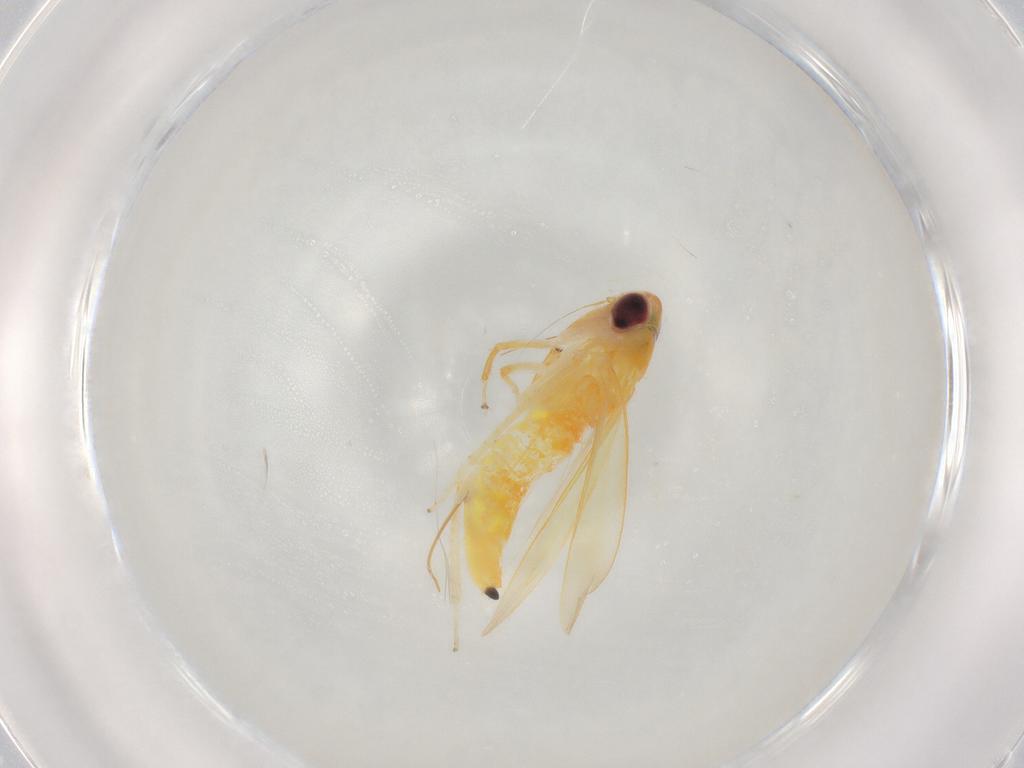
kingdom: Animalia
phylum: Arthropoda
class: Insecta
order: Hemiptera
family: Cicadellidae
